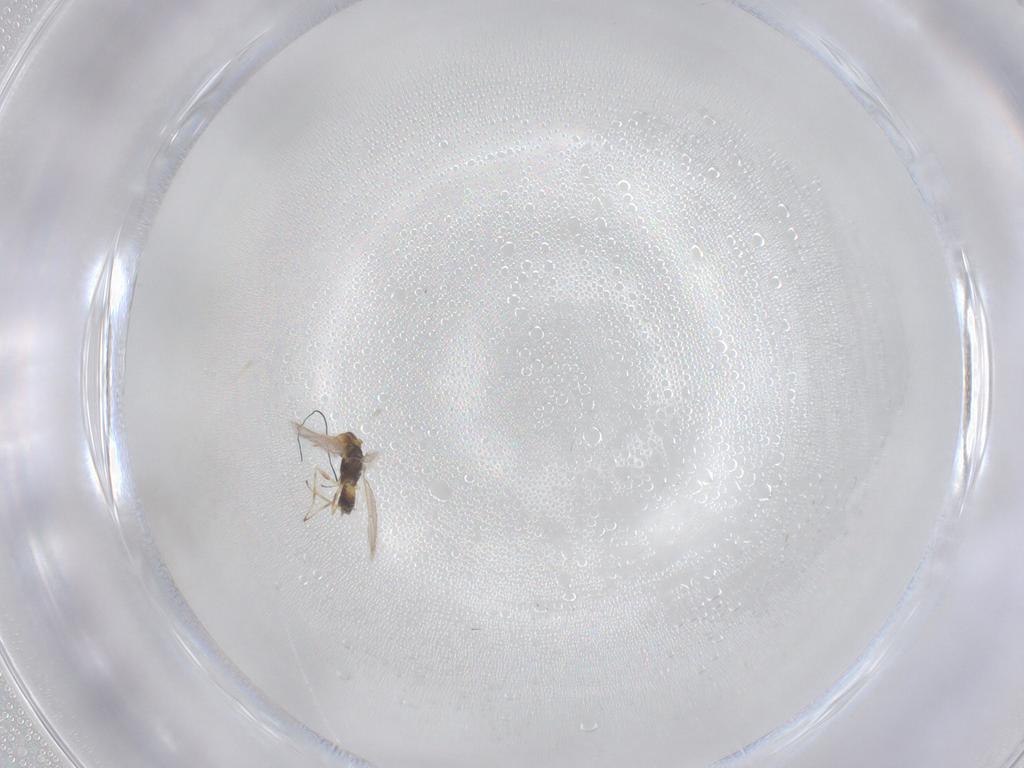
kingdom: Animalia
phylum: Arthropoda
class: Insecta
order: Hymenoptera
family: Eulophidae
